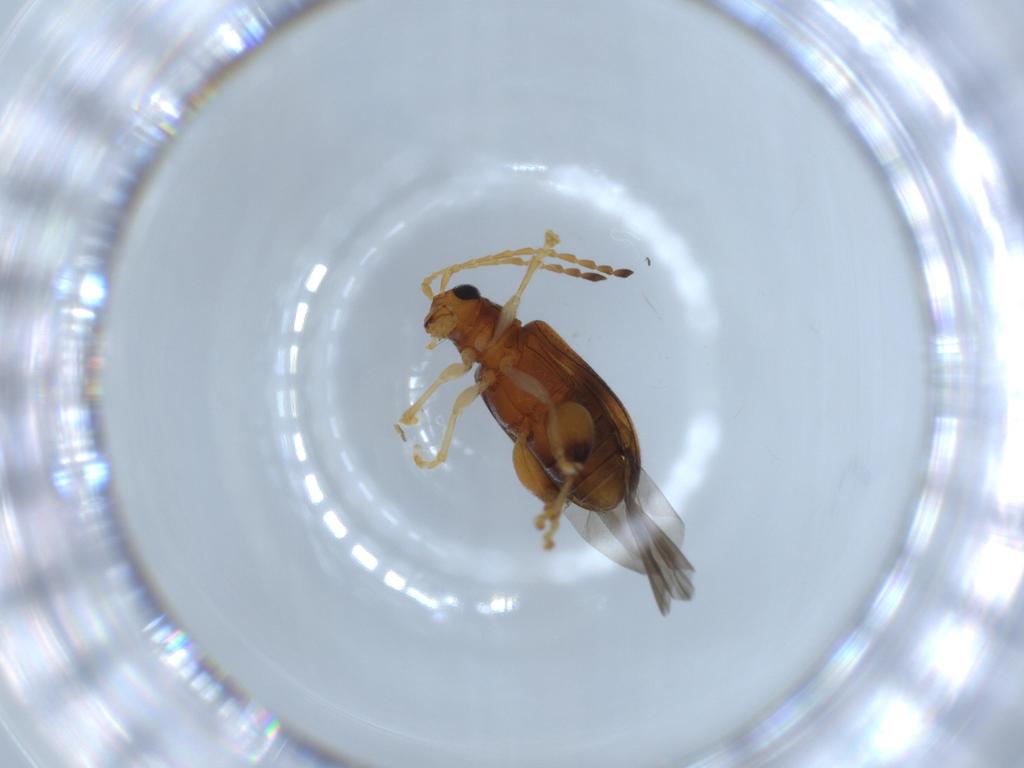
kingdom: Animalia
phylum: Arthropoda
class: Insecta
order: Coleoptera
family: Chrysomelidae
